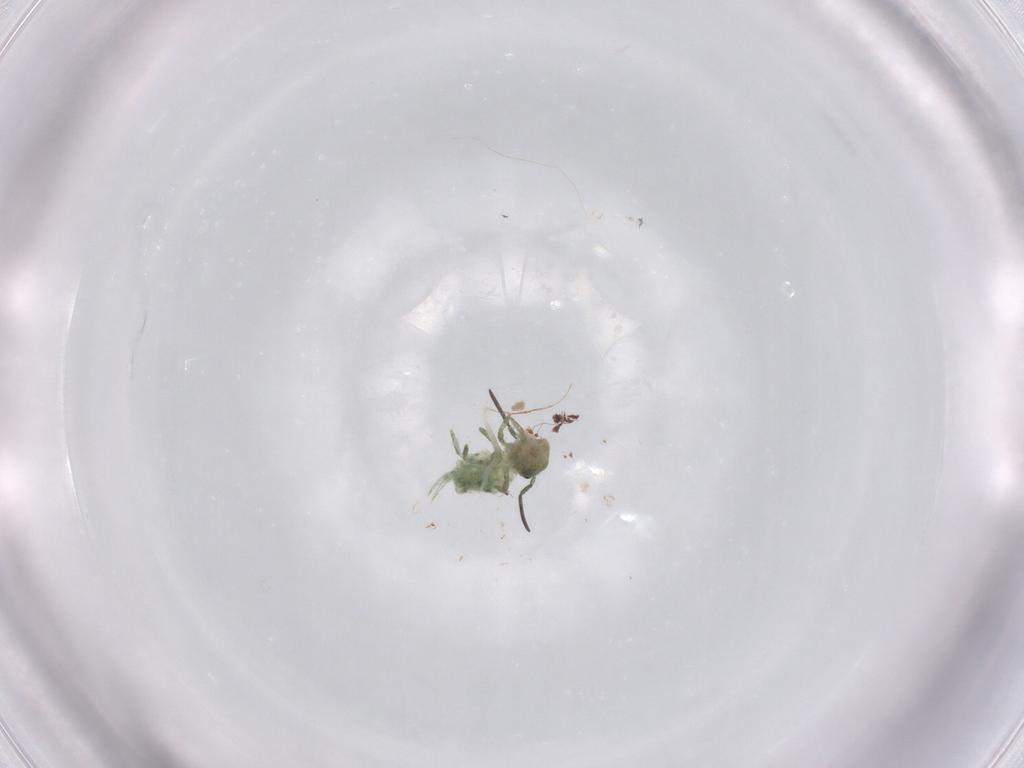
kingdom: Animalia
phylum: Arthropoda
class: Collembola
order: Symphypleona
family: Sminthuridae
